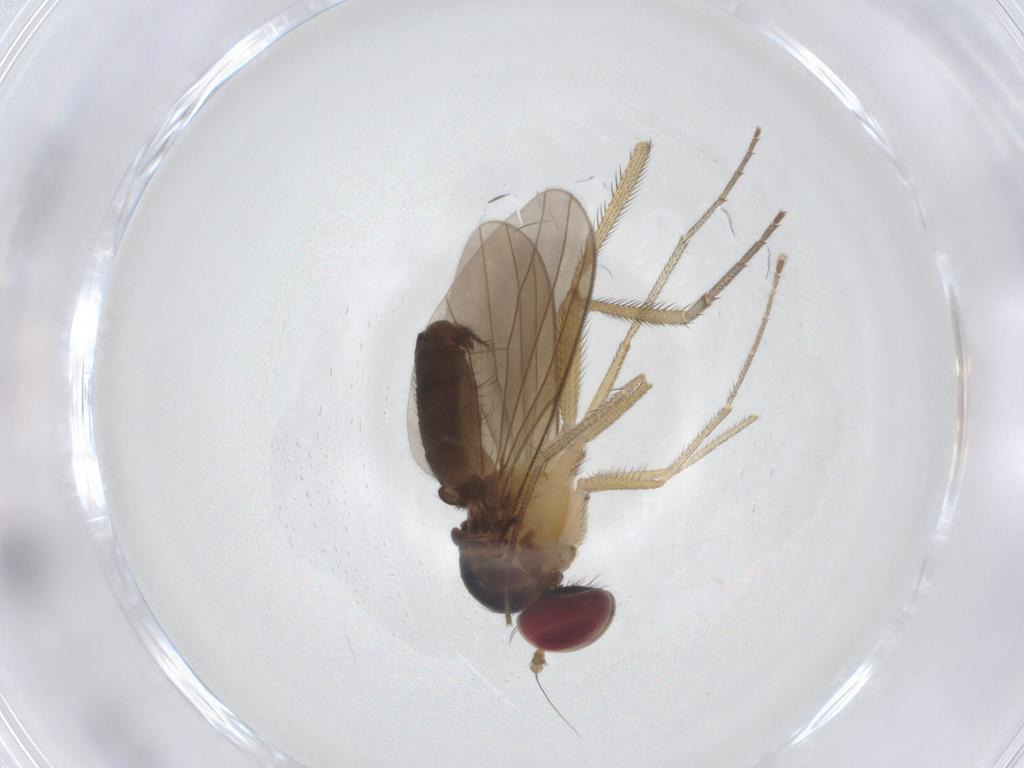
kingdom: Animalia
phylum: Arthropoda
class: Insecta
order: Diptera
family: Dolichopodidae
